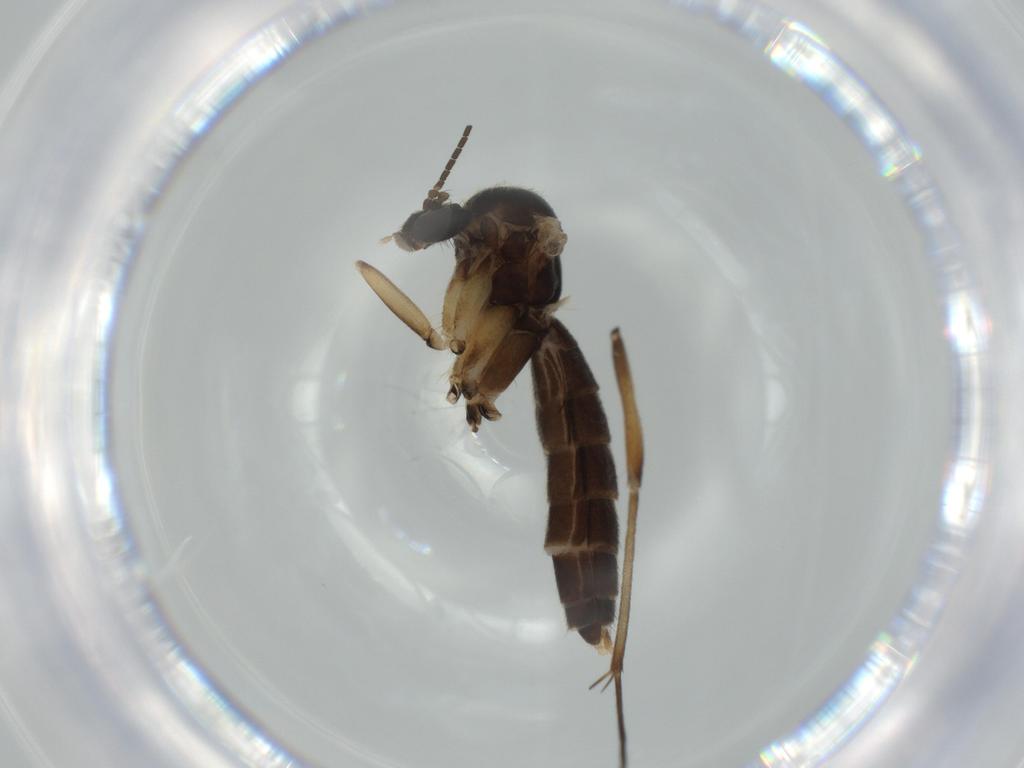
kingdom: Animalia
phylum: Arthropoda
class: Insecta
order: Diptera
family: Mycetophilidae
